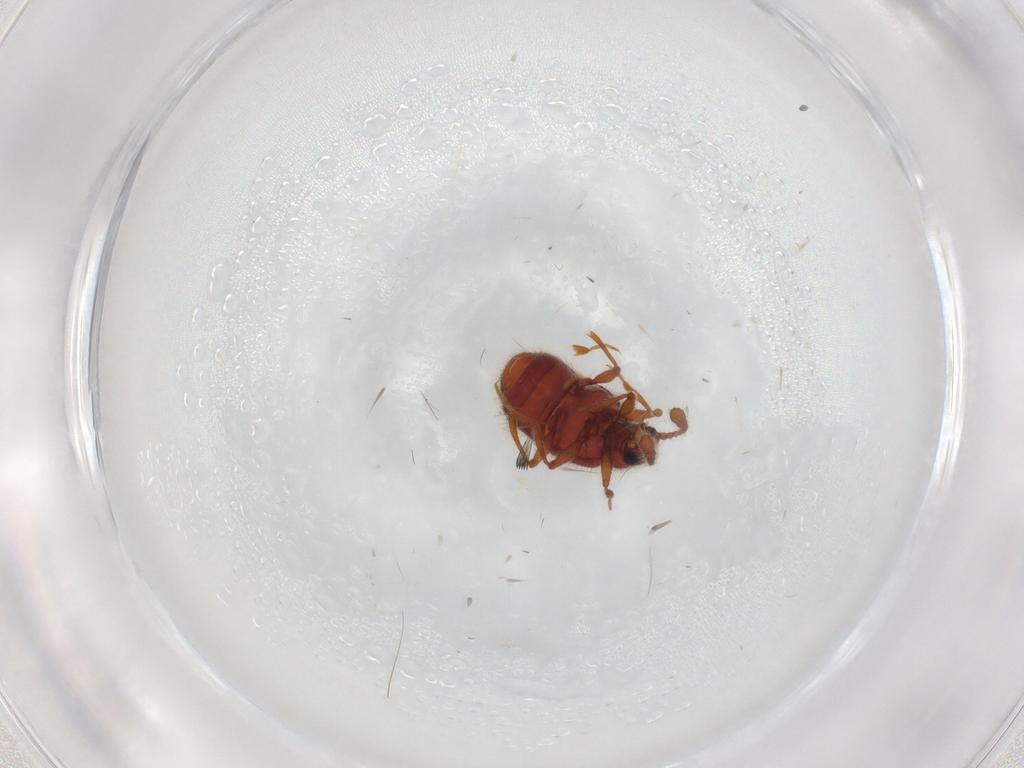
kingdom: Animalia
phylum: Arthropoda
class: Insecta
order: Coleoptera
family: Staphylinidae
